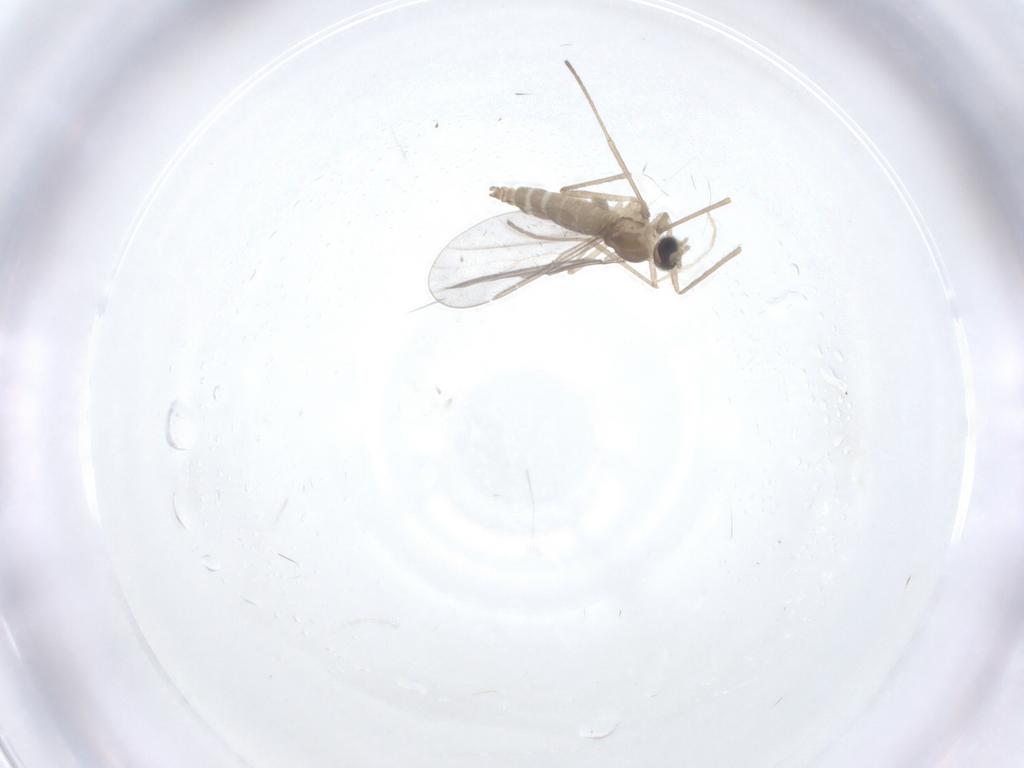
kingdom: Animalia
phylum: Arthropoda
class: Insecta
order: Diptera
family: Cecidomyiidae
